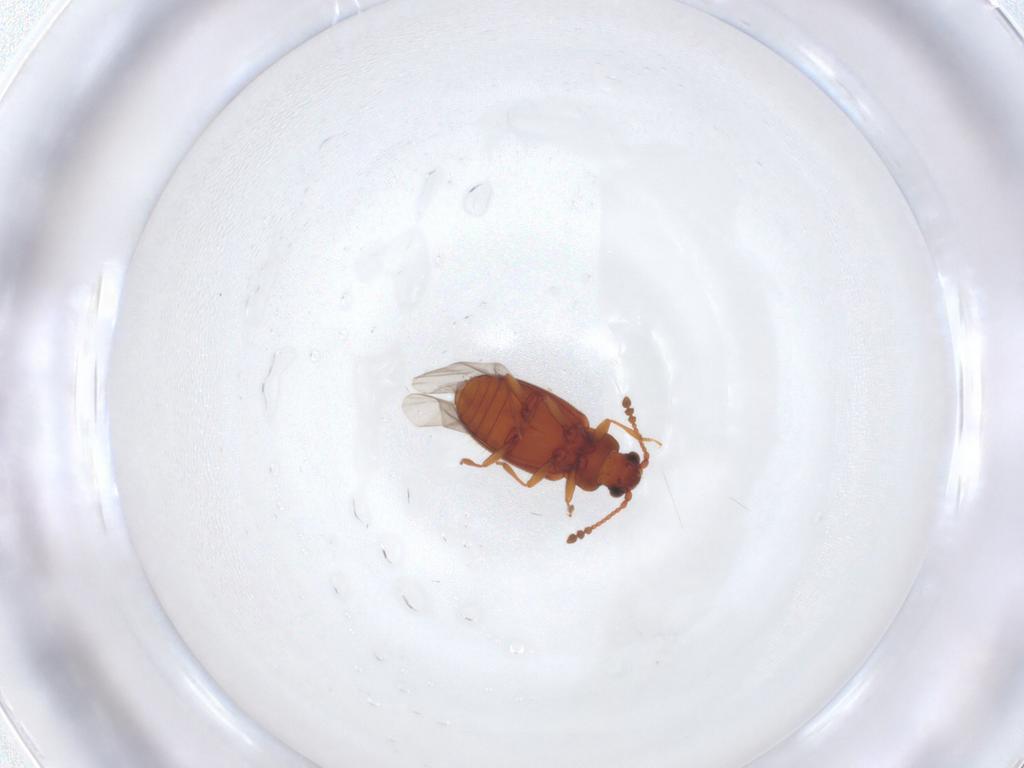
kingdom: Animalia
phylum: Arthropoda
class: Insecta
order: Coleoptera
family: Cryptophagidae
